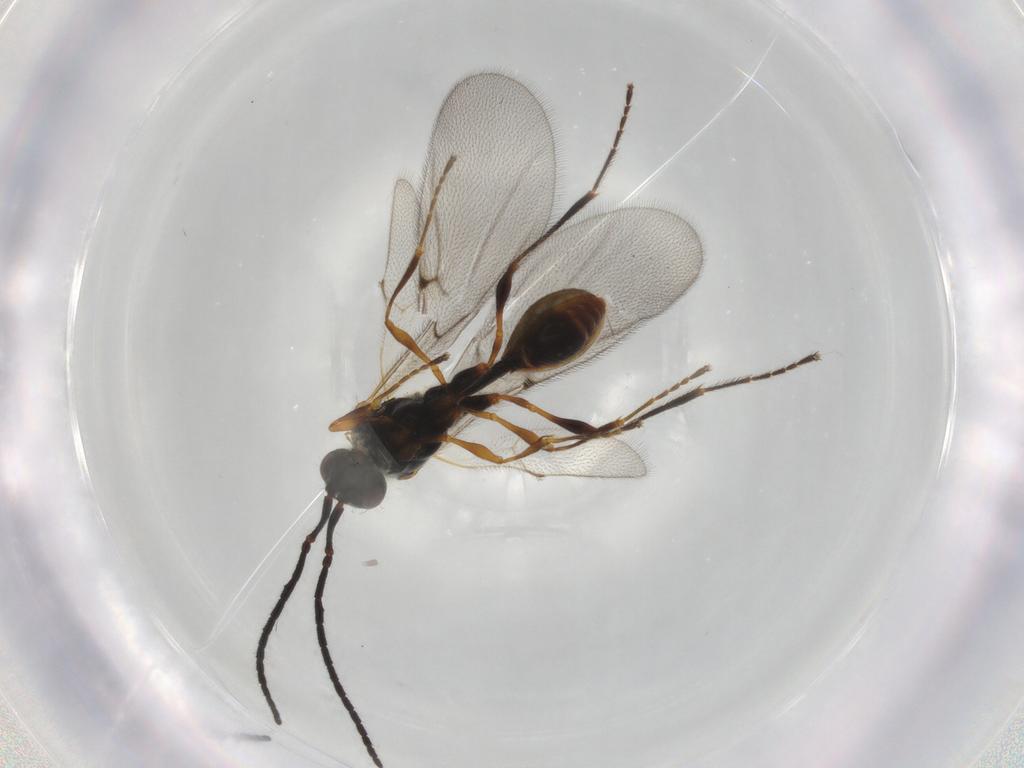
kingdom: Animalia
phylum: Arthropoda
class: Insecta
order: Hymenoptera
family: Diapriidae
